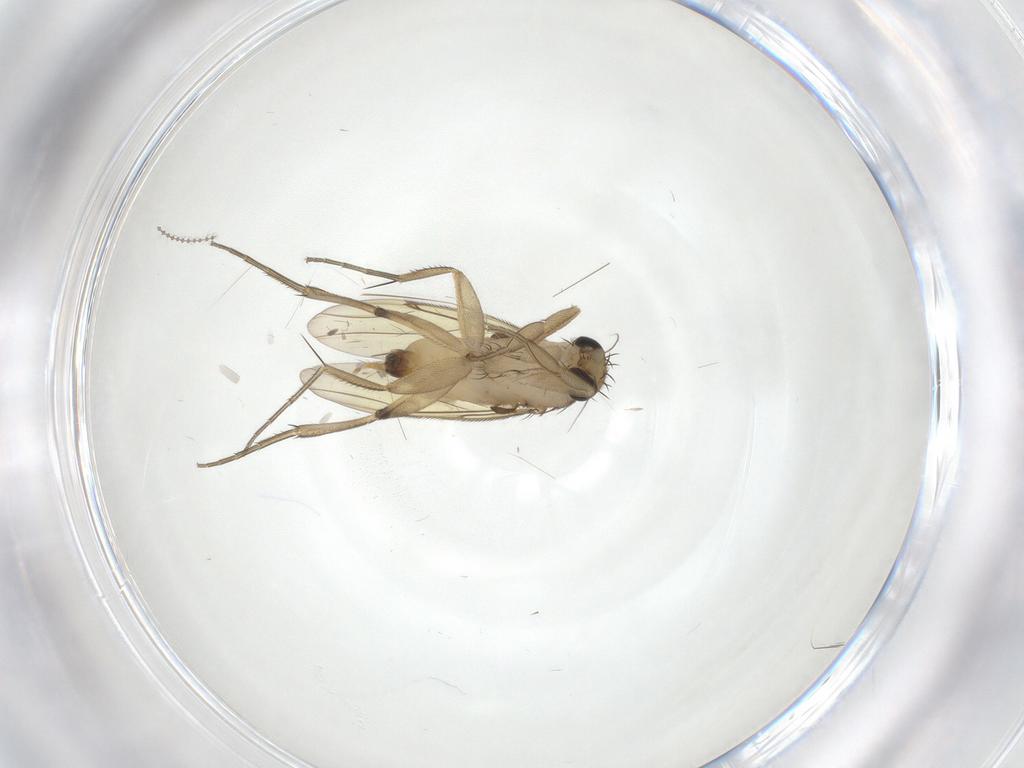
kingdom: Animalia
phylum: Arthropoda
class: Insecta
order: Diptera
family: Phoridae
